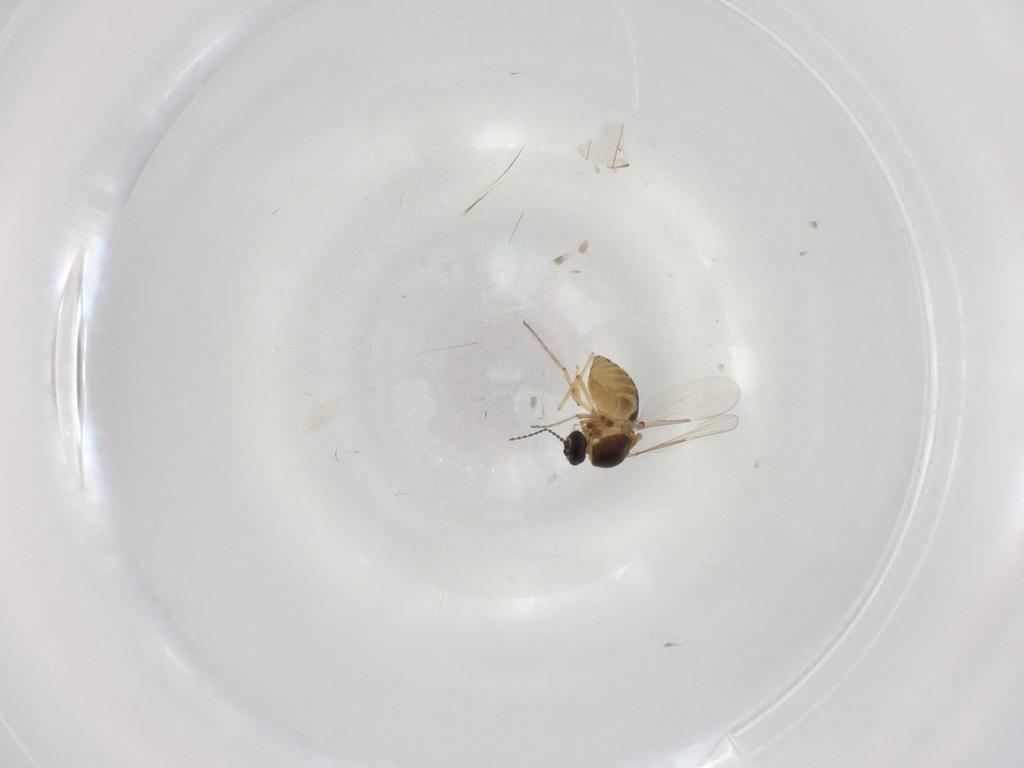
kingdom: Animalia
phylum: Arthropoda
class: Insecta
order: Diptera
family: Ceratopogonidae
